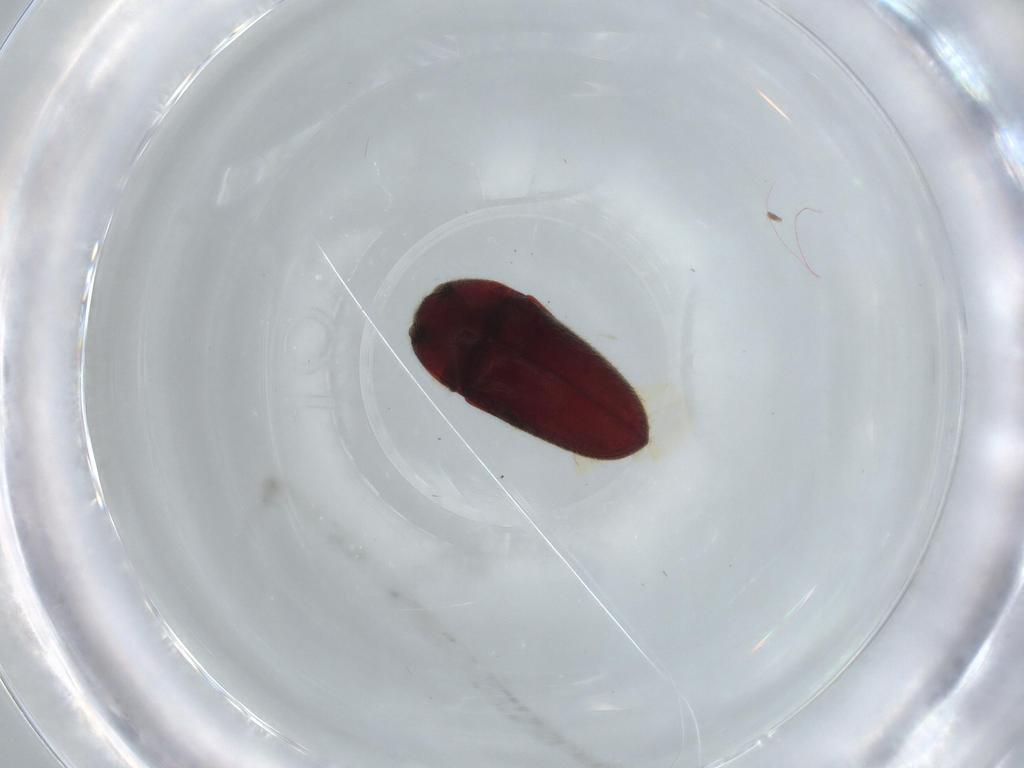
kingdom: Animalia
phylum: Arthropoda
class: Insecta
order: Coleoptera
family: Throscidae
